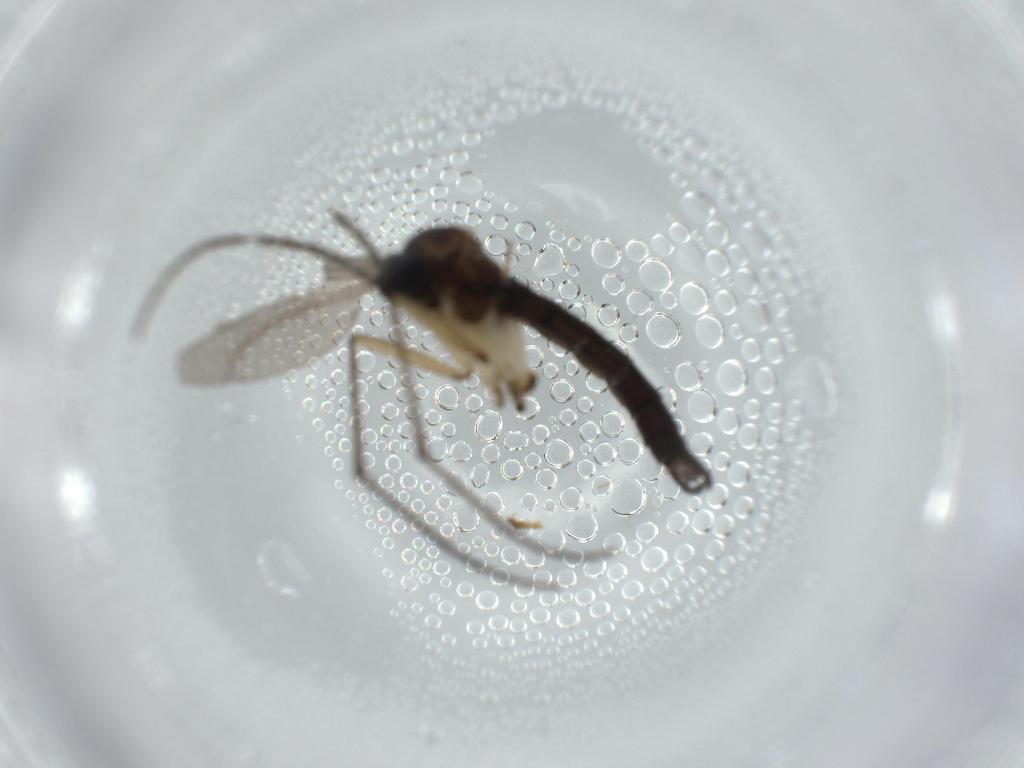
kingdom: Animalia
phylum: Arthropoda
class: Insecta
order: Diptera
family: Sciaridae
